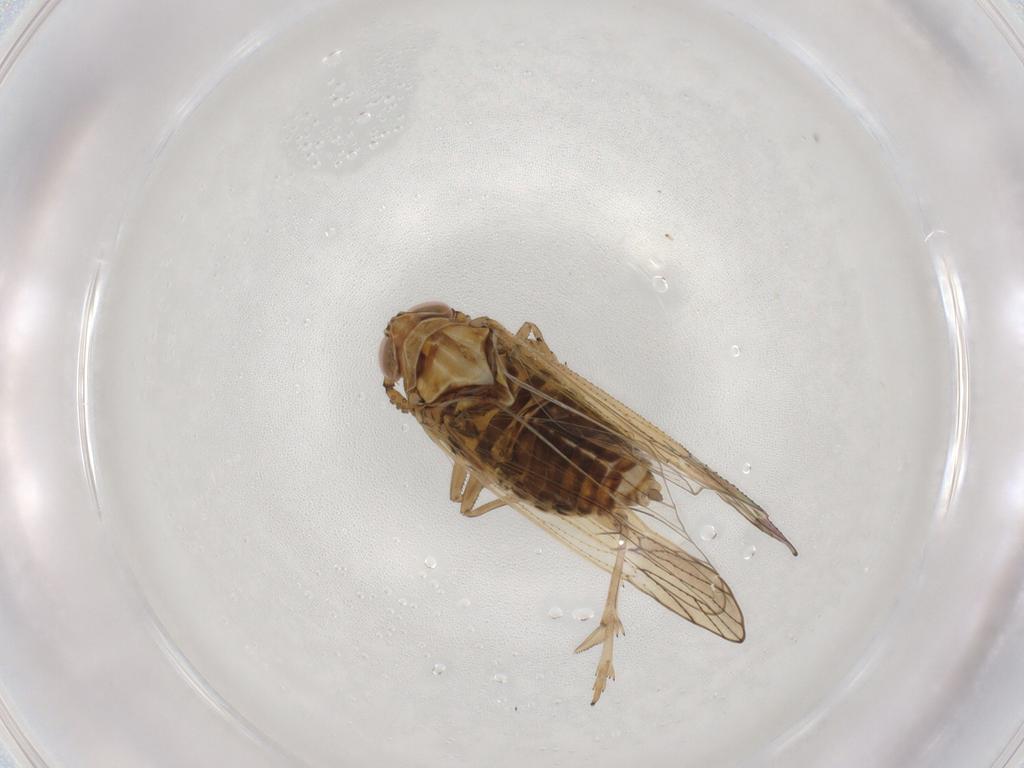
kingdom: Animalia
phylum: Arthropoda
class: Insecta
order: Hemiptera
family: Delphacidae
